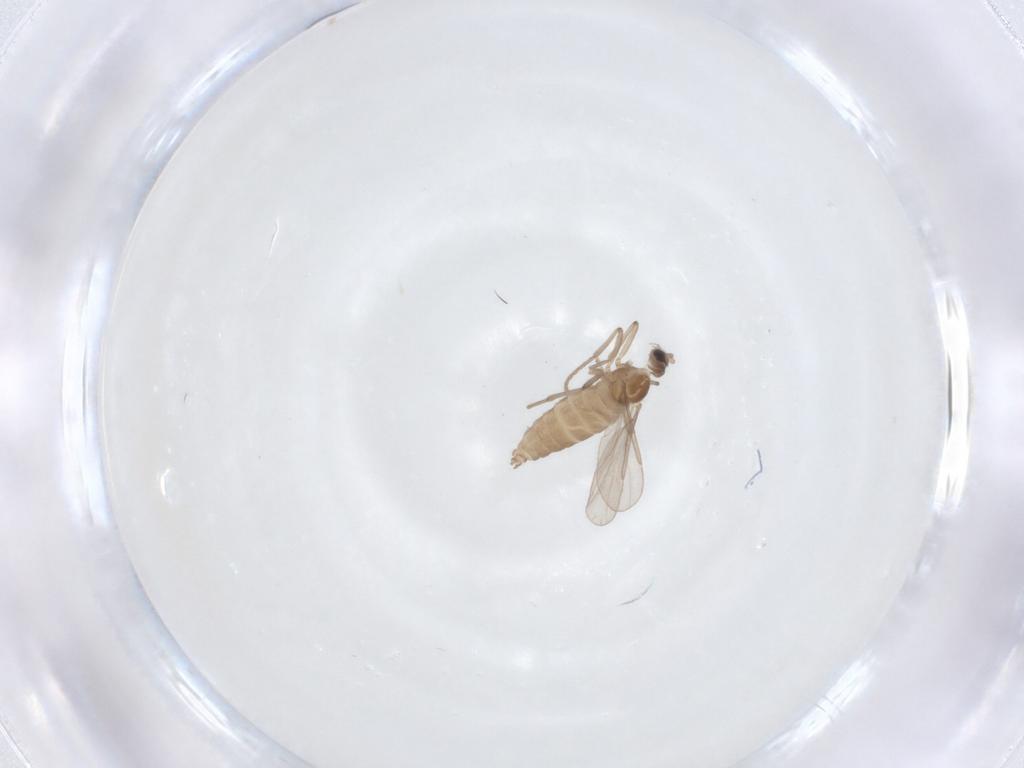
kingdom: Animalia
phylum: Arthropoda
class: Insecta
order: Diptera
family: Cecidomyiidae
